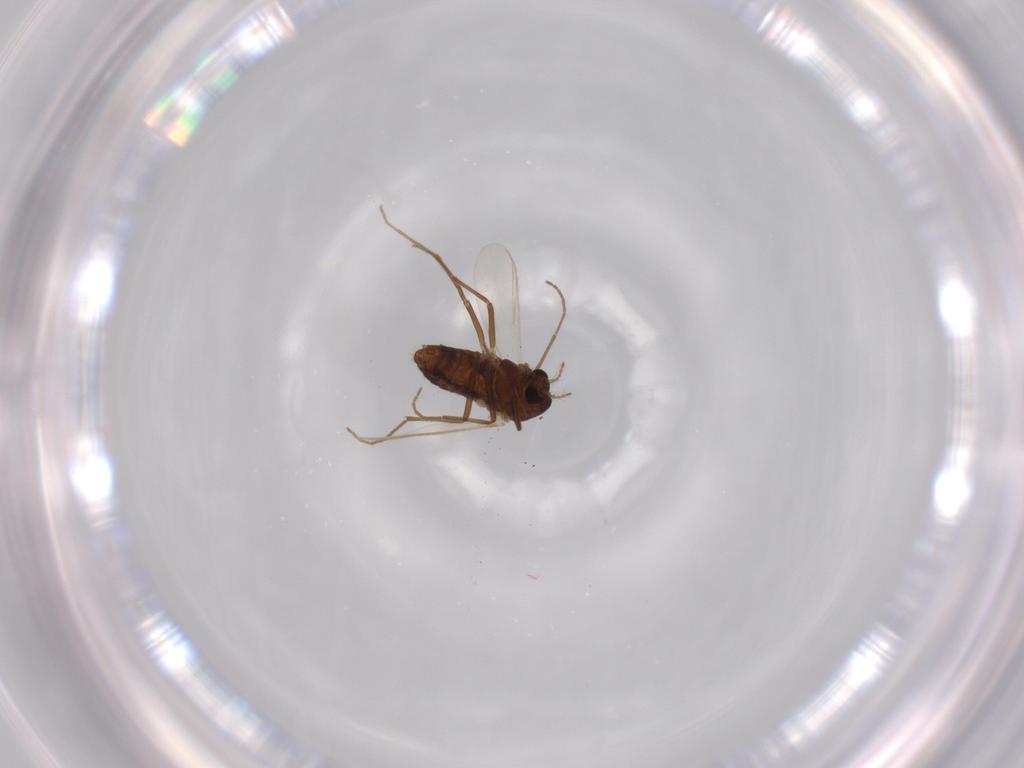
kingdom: Animalia
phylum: Arthropoda
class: Insecta
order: Diptera
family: Chironomidae
